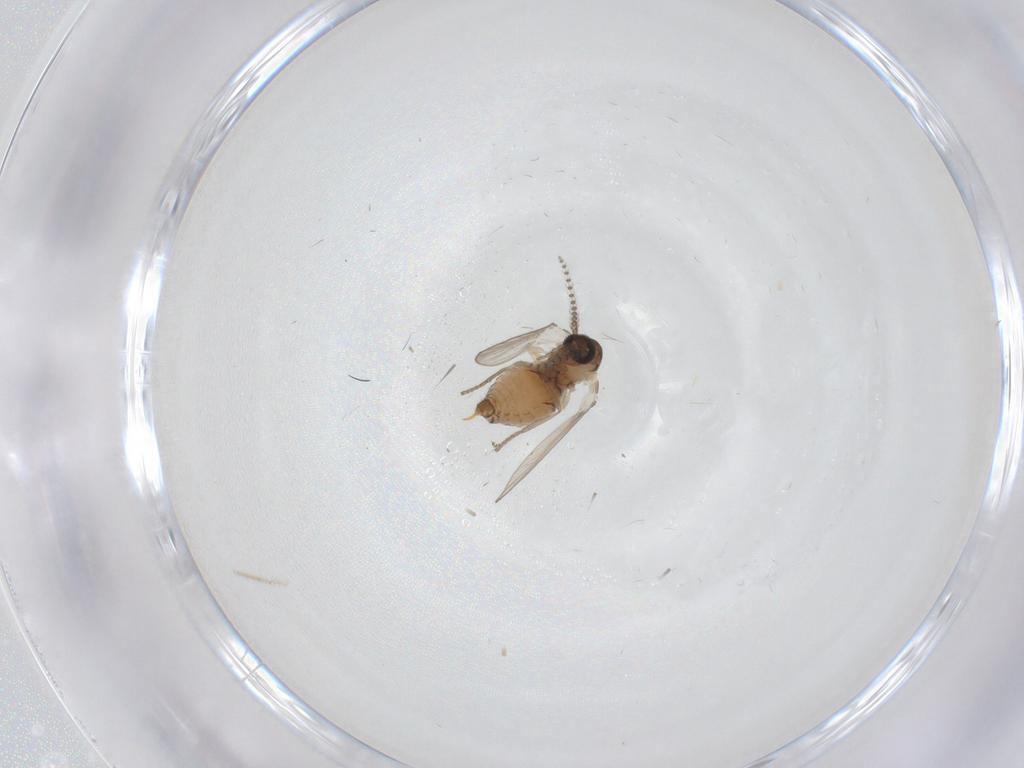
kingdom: Animalia
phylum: Arthropoda
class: Insecta
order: Diptera
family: Psychodidae
